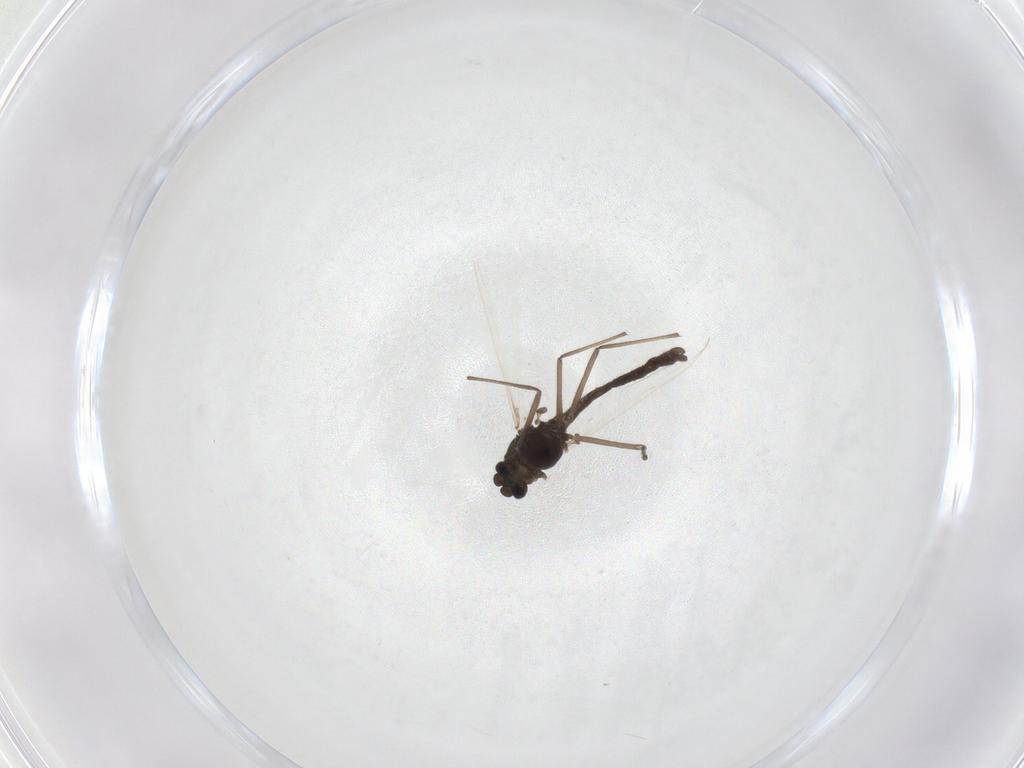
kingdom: Animalia
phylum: Arthropoda
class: Insecta
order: Diptera
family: Chironomidae
